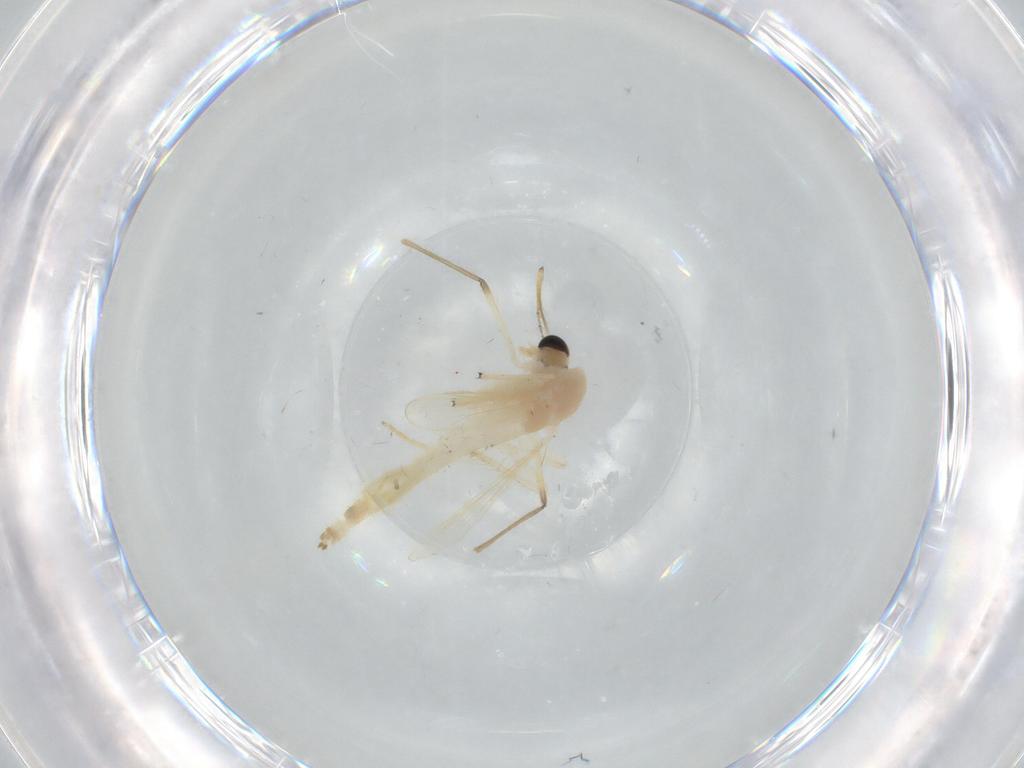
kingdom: Animalia
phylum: Arthropoda
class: Insecta
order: Diptera
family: Chironomidae
